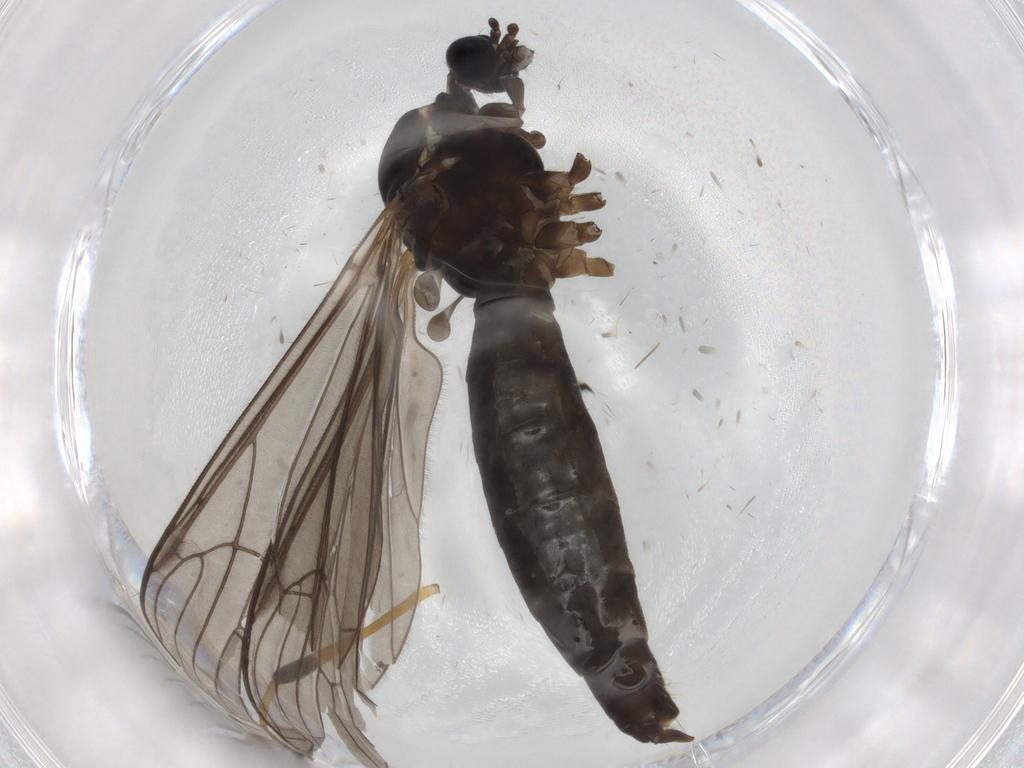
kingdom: Animalia
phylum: Arthropoda
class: Insecta
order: Diptera
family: Limoniidae
